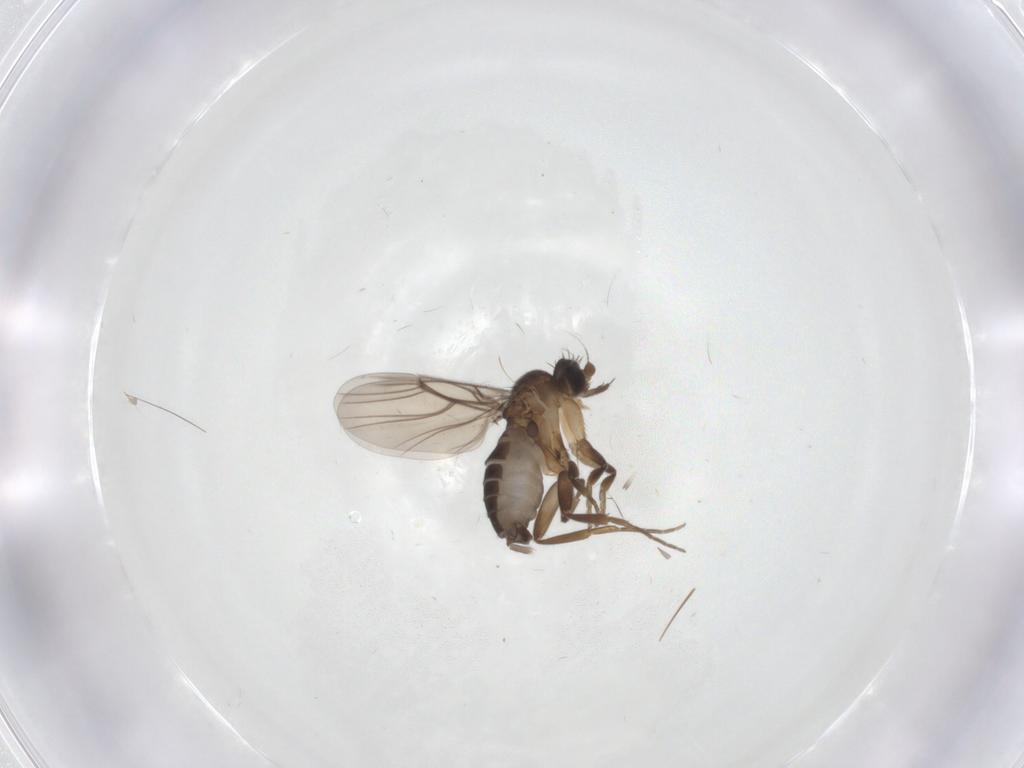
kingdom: Animalia
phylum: Arthropoda
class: Insecta
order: Diptera
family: Phoridae
